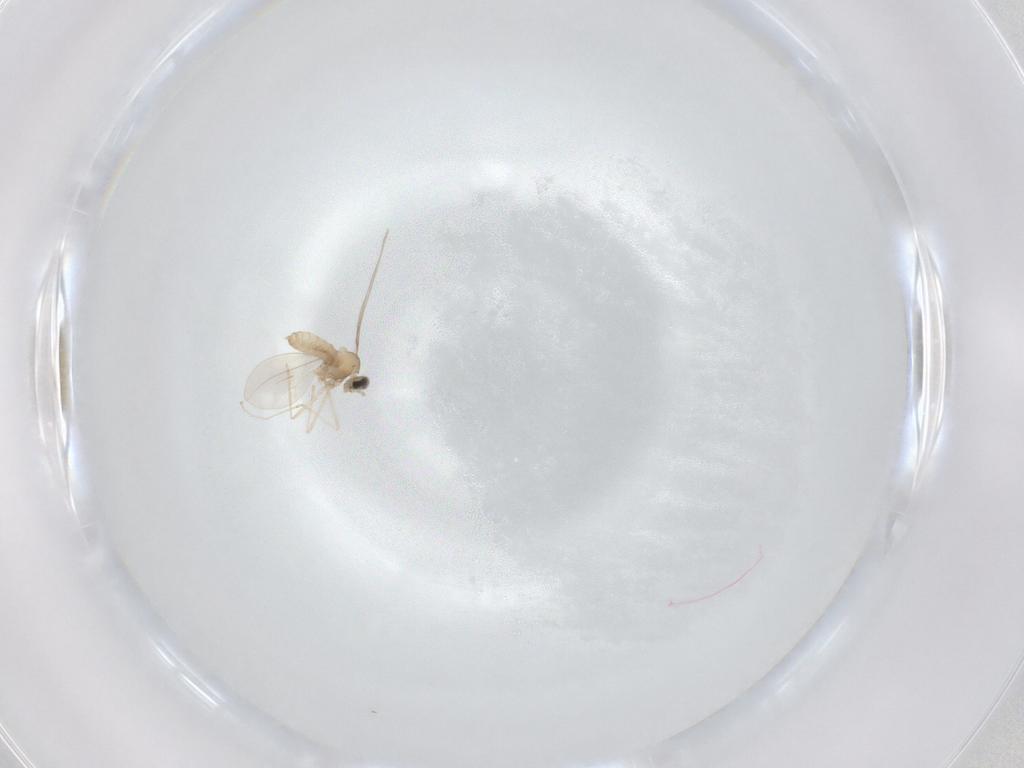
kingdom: Animalia
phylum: Arthropoda
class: Insecta
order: Diptera
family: Cecidomyiidae
